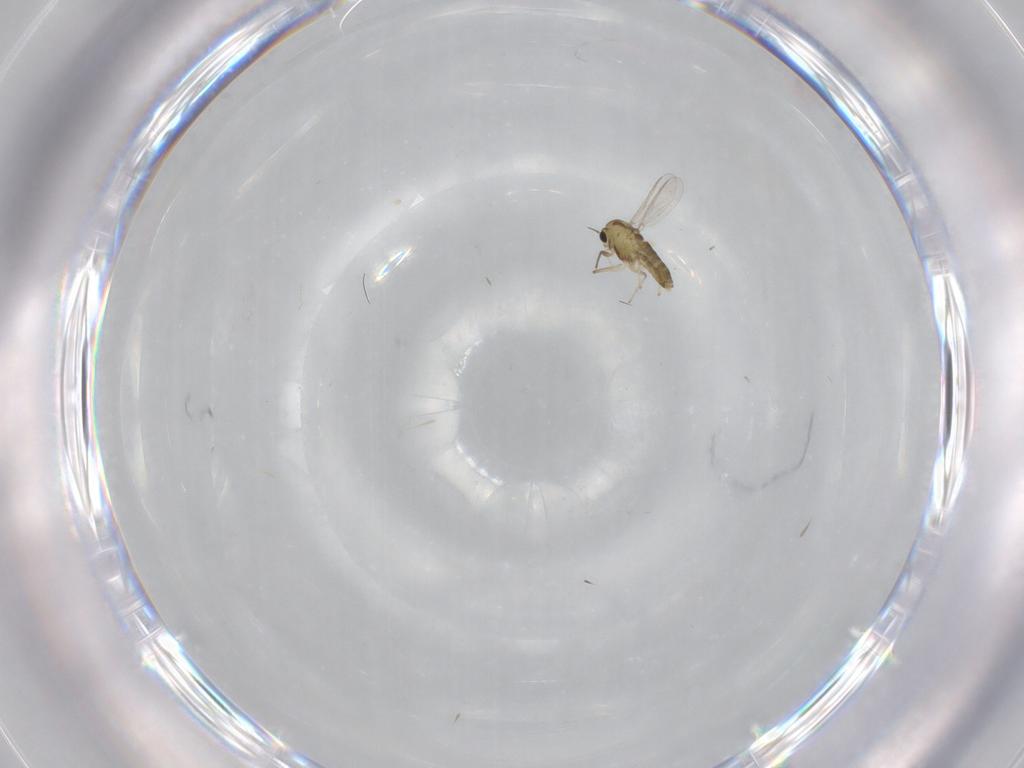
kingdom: Animalia
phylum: Arthropoda
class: Insecta
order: Diptera
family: Chironomidae
